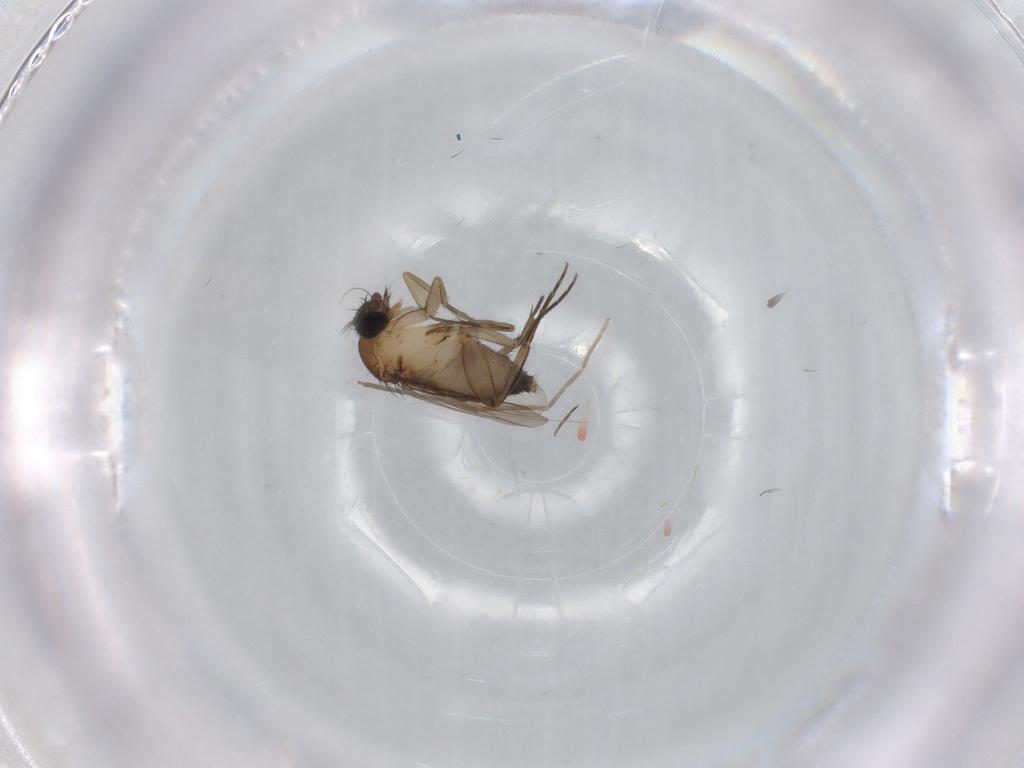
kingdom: Animalia
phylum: Arthropoda
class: Insecta
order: Diptera
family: Phoridae
